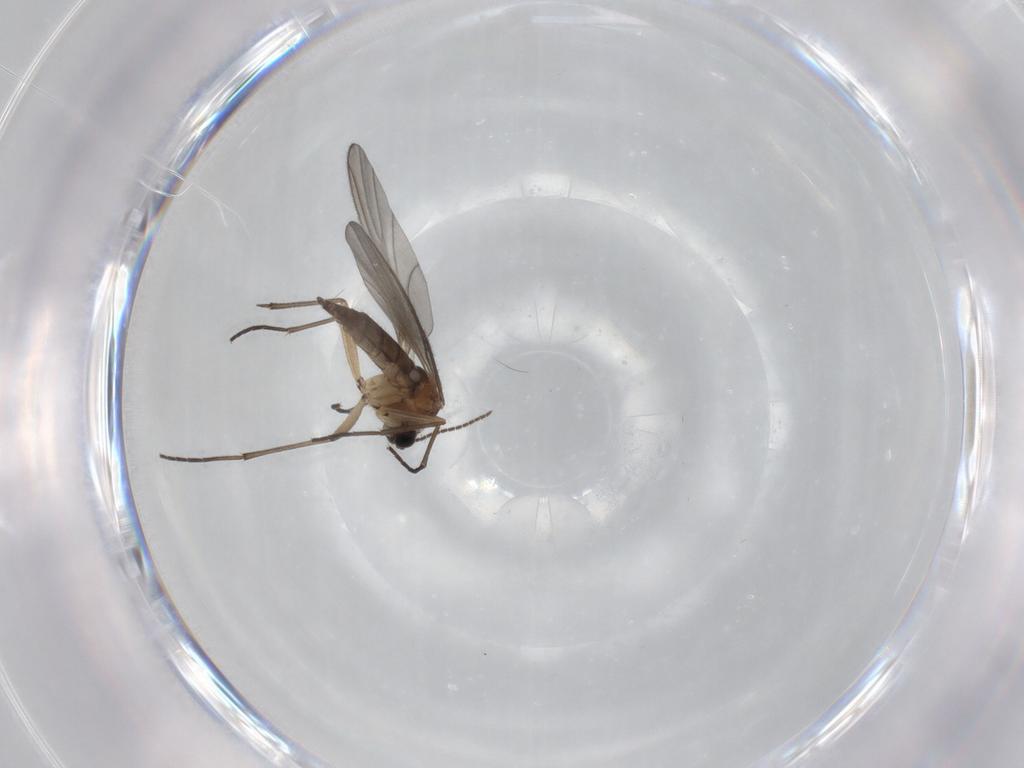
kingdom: Animalia
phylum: Arthropoda
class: Insecta
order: Diptera
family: Sciaridae
